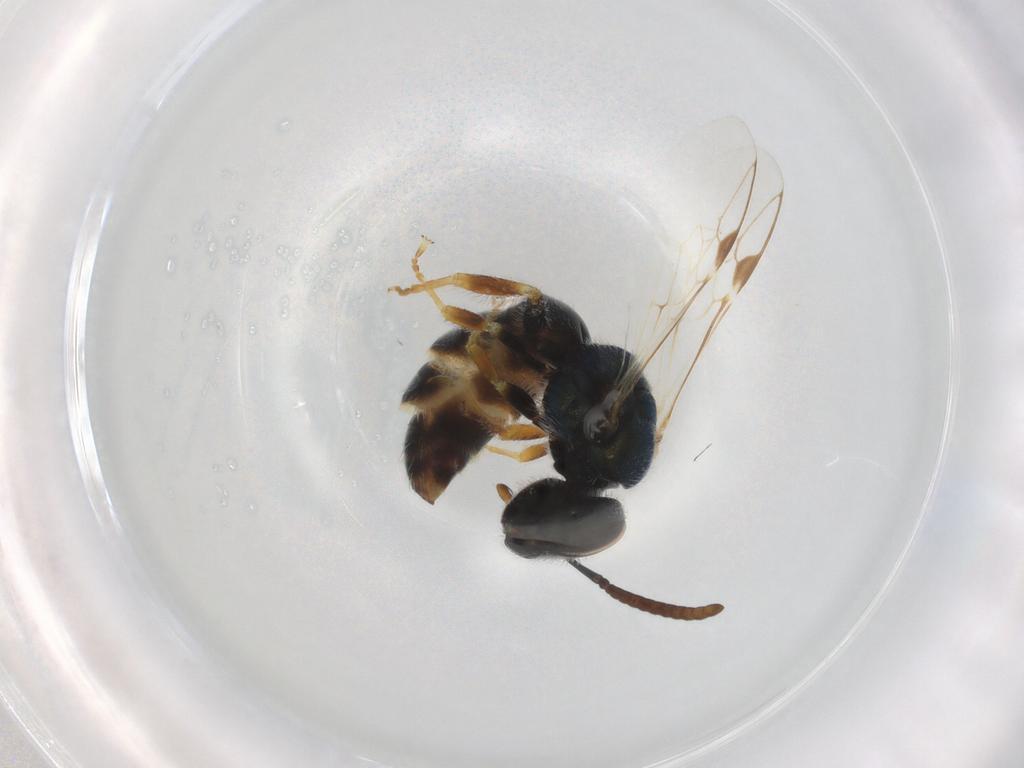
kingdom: Animalia
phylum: Arthropoda
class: Insecta
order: Hymenoptera
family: Halictidae
